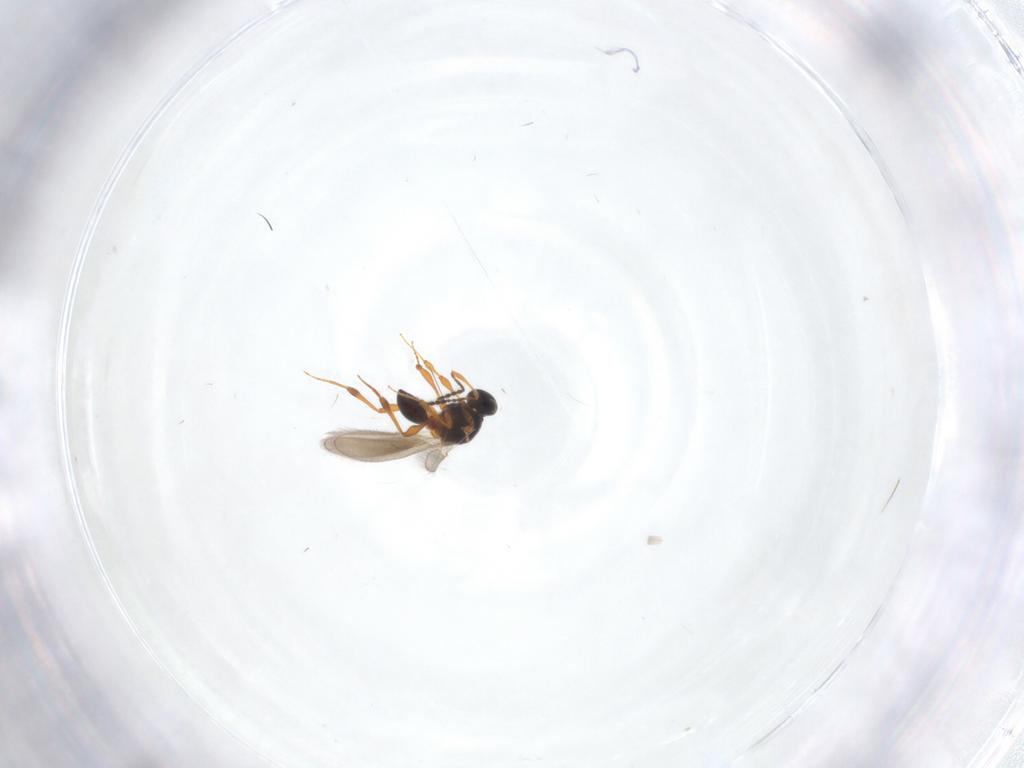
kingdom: Animalia
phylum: Arthropoda
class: Insecta
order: Hymenoptera
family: Platygastridae
